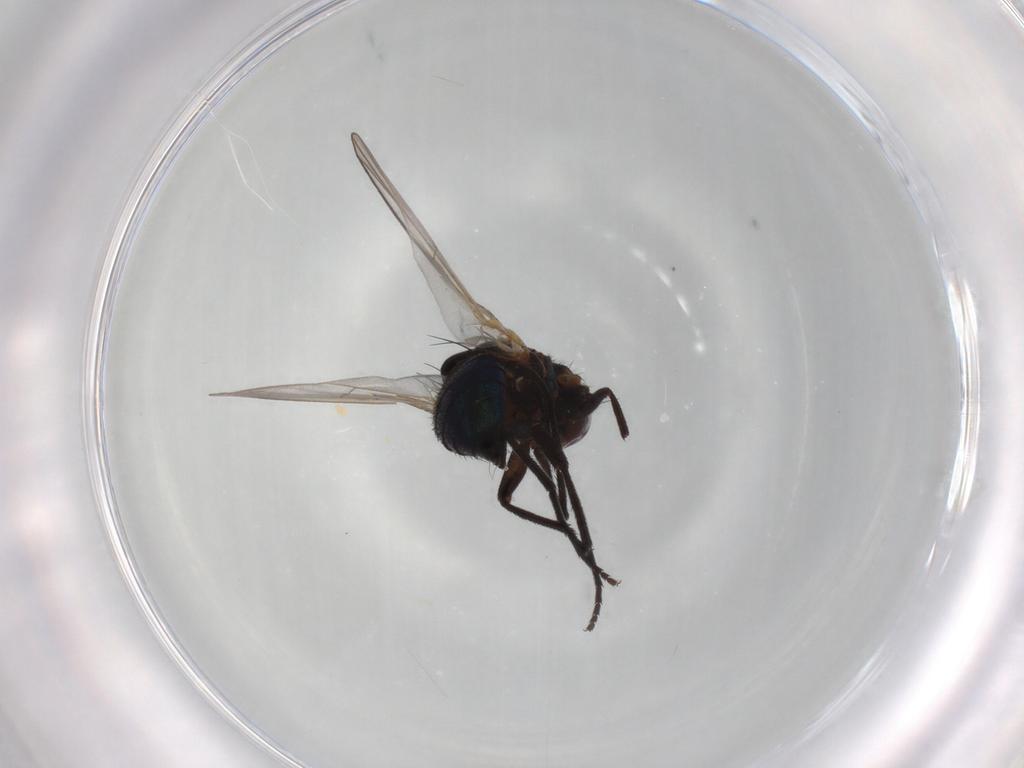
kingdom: Animalia
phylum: Arthropoda
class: Insecta
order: Diptera
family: Agromyzidae
